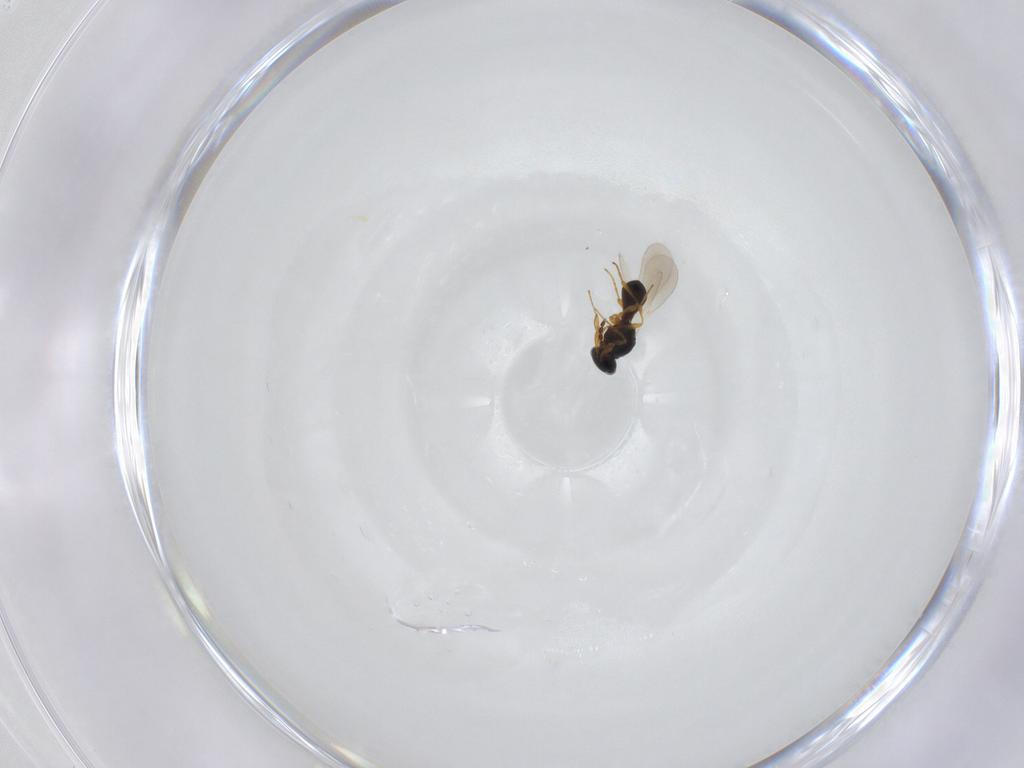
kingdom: Animalia
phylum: Arthropoda
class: Insecta
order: Hymenoptera
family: Platygastridae
